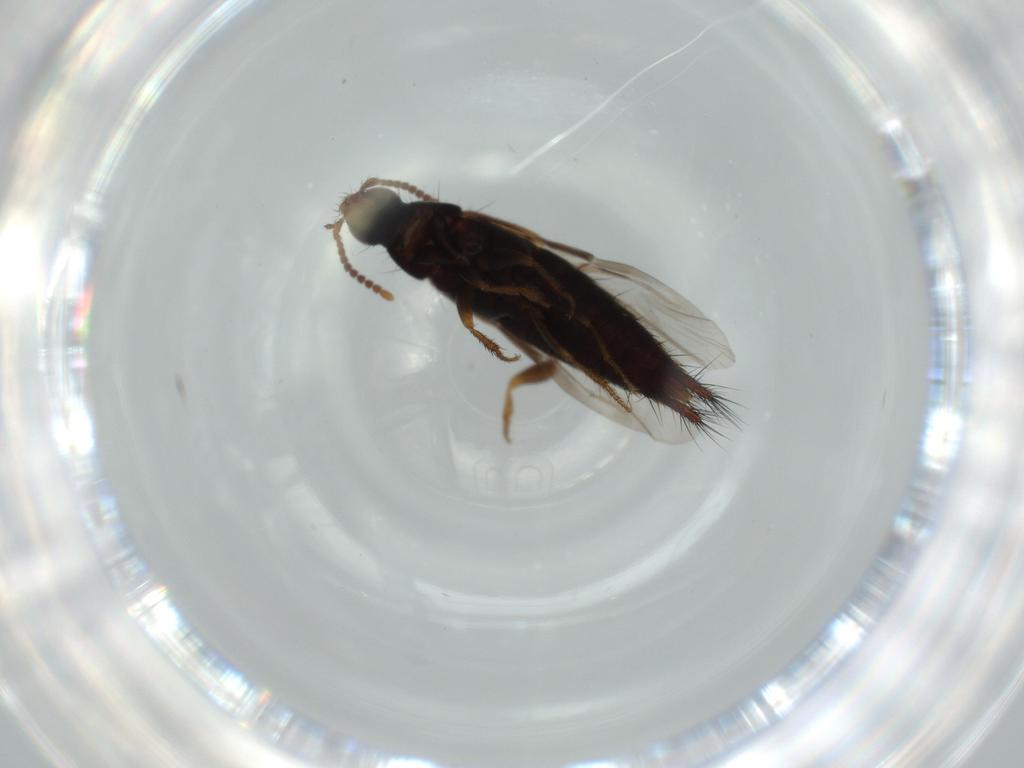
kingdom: Animalia
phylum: Arthropoda
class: Insecta
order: Coleoptera
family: Staphylinidae
